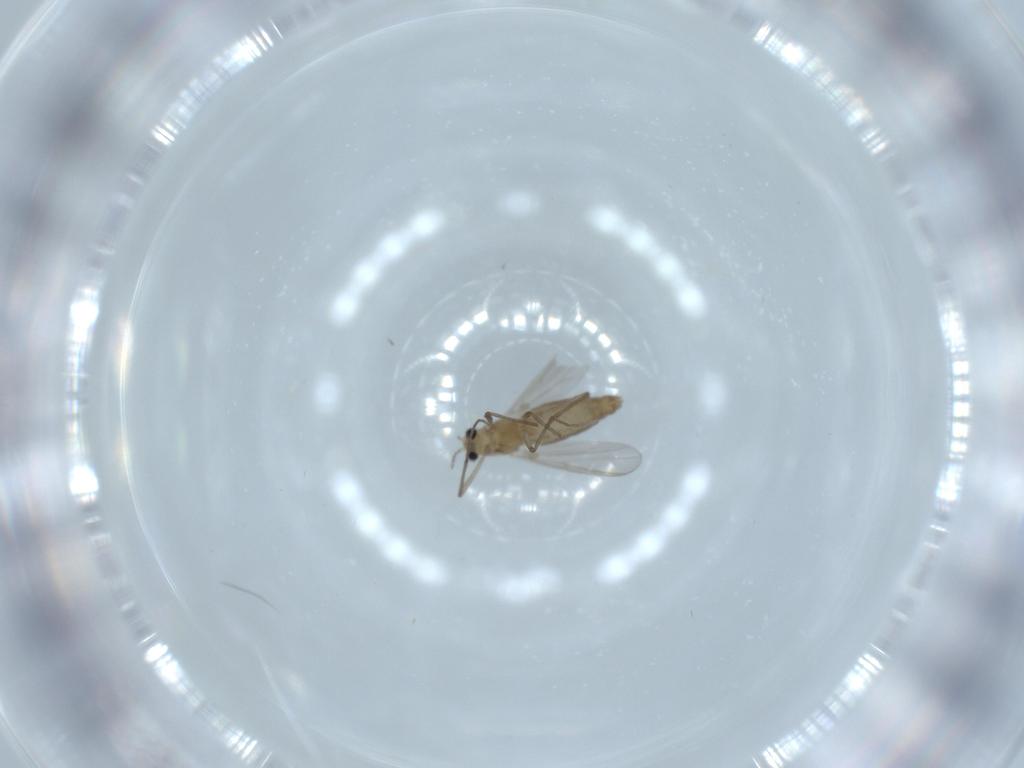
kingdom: Animalia
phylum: Arthropoda
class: Insecta
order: Diptera
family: Chironomidae
